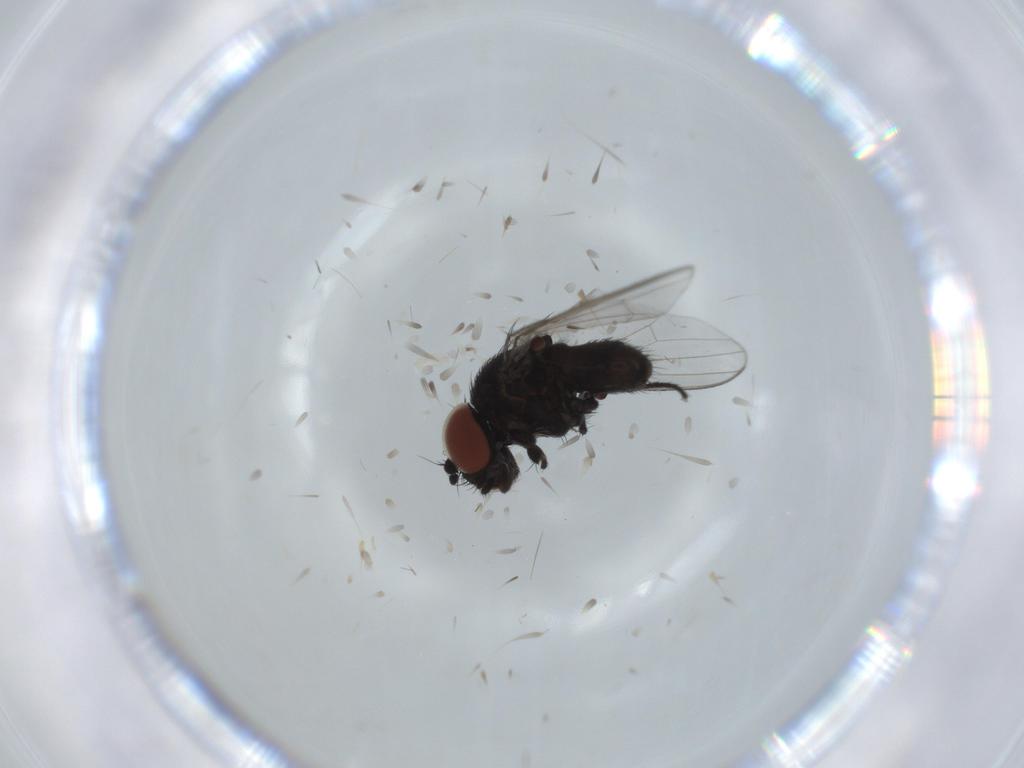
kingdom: Animalia
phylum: Arthropoda
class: Insecta
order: Diptera
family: Milichiidae
